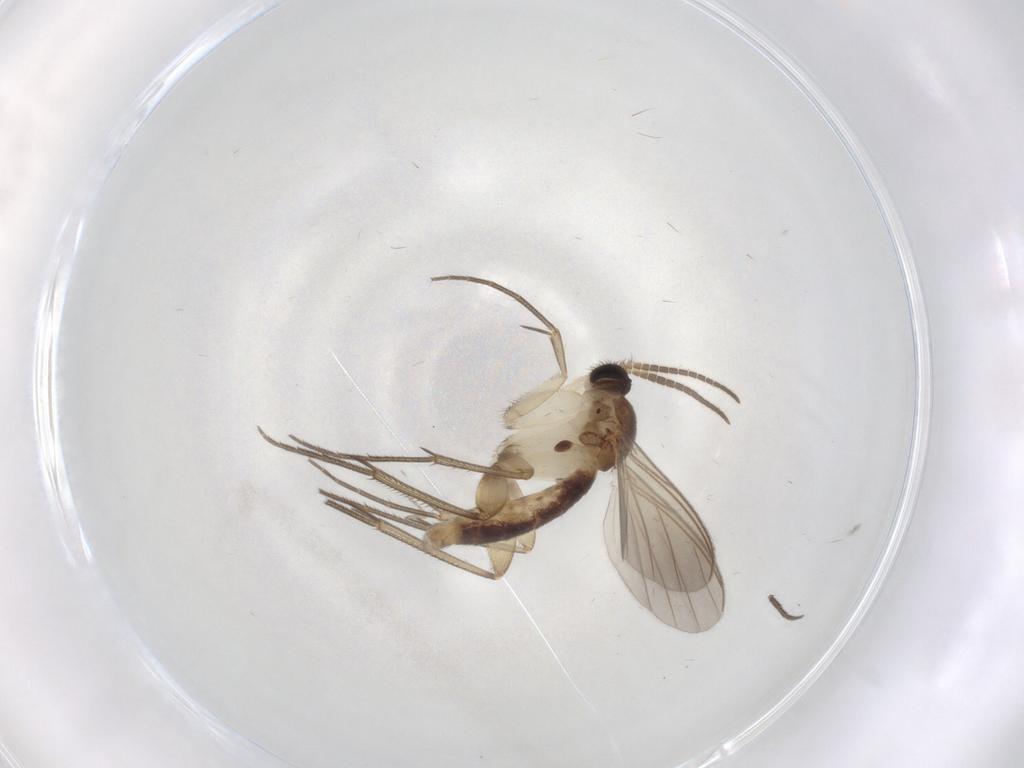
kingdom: Animalia
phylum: Arthropoda
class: Insecta
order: Diptera
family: Mycetophilidae
